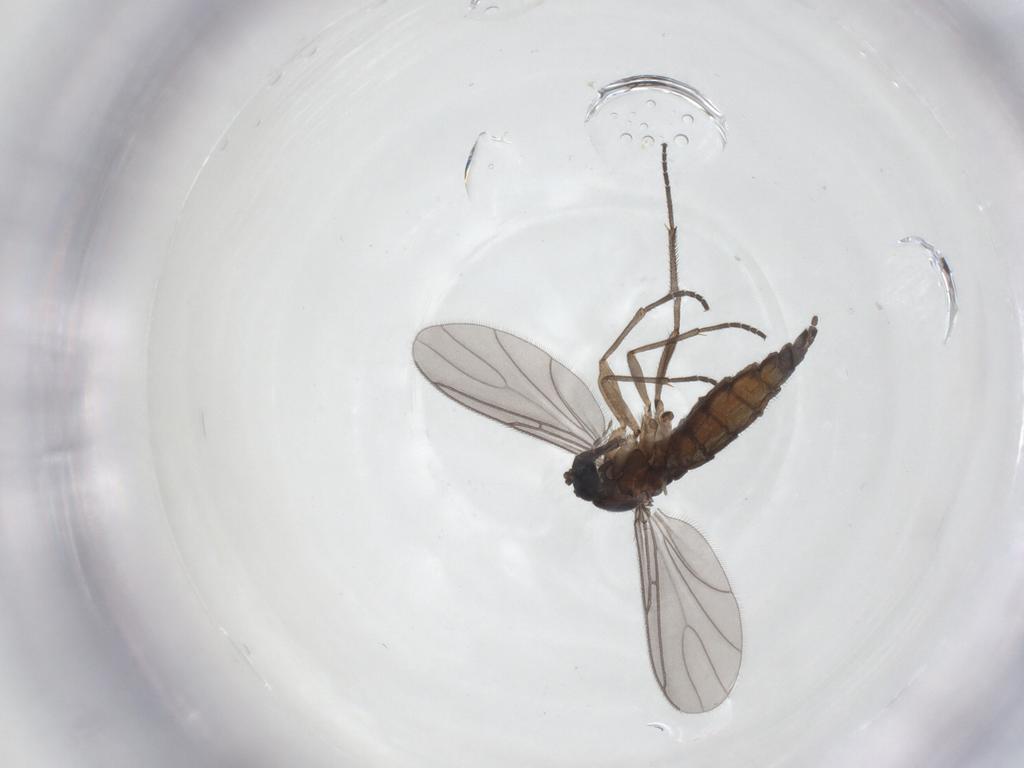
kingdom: Animalia
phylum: Arthropoda
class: Insecta
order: Diptera
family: Sciaridae
